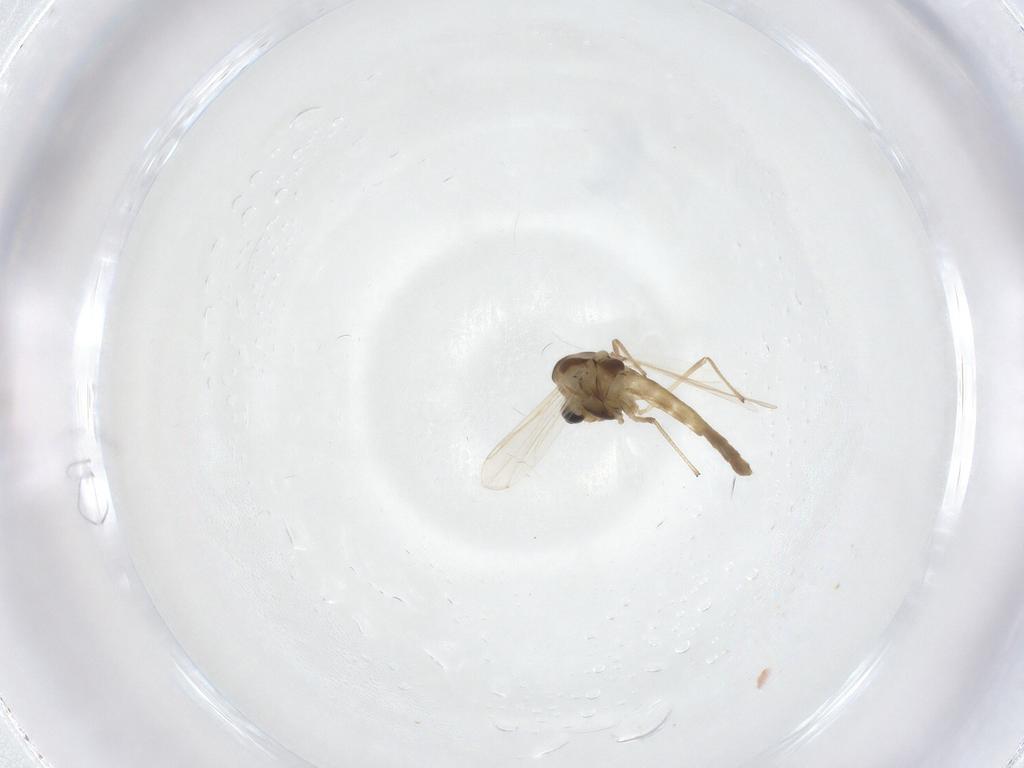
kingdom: Animalia
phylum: Arthropoda
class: Insecta
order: Diptera
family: Chironomidae
